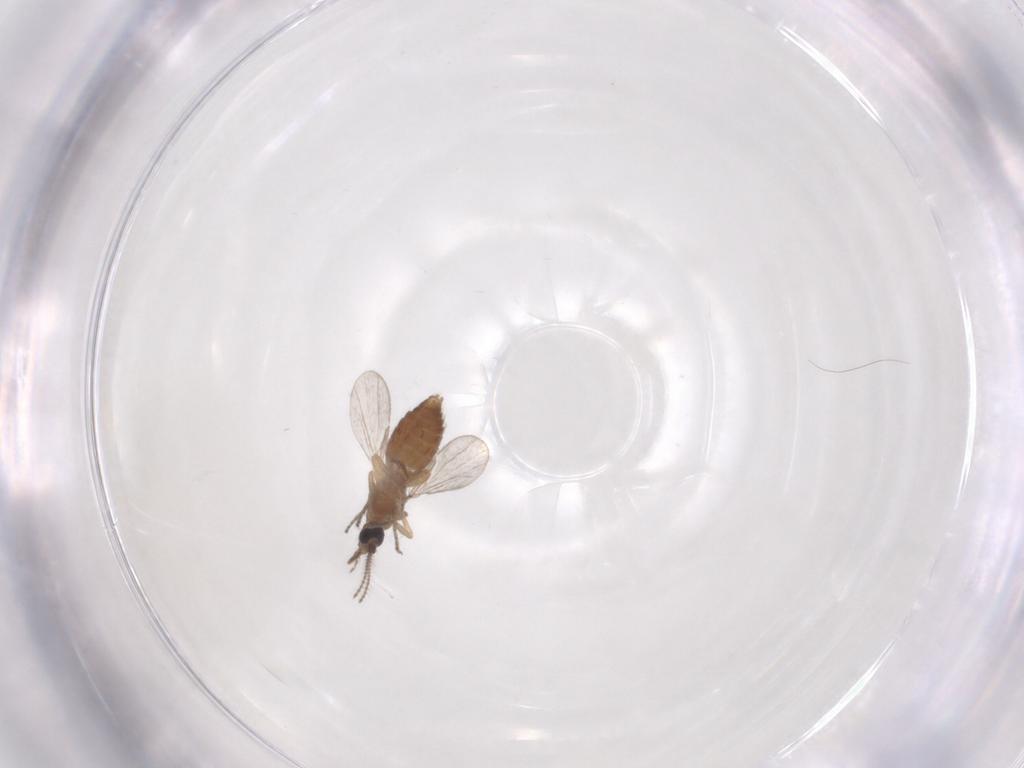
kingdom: Animalia
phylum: Arthropoda
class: Insecta
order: Diptera
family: Ceratopogonidae
